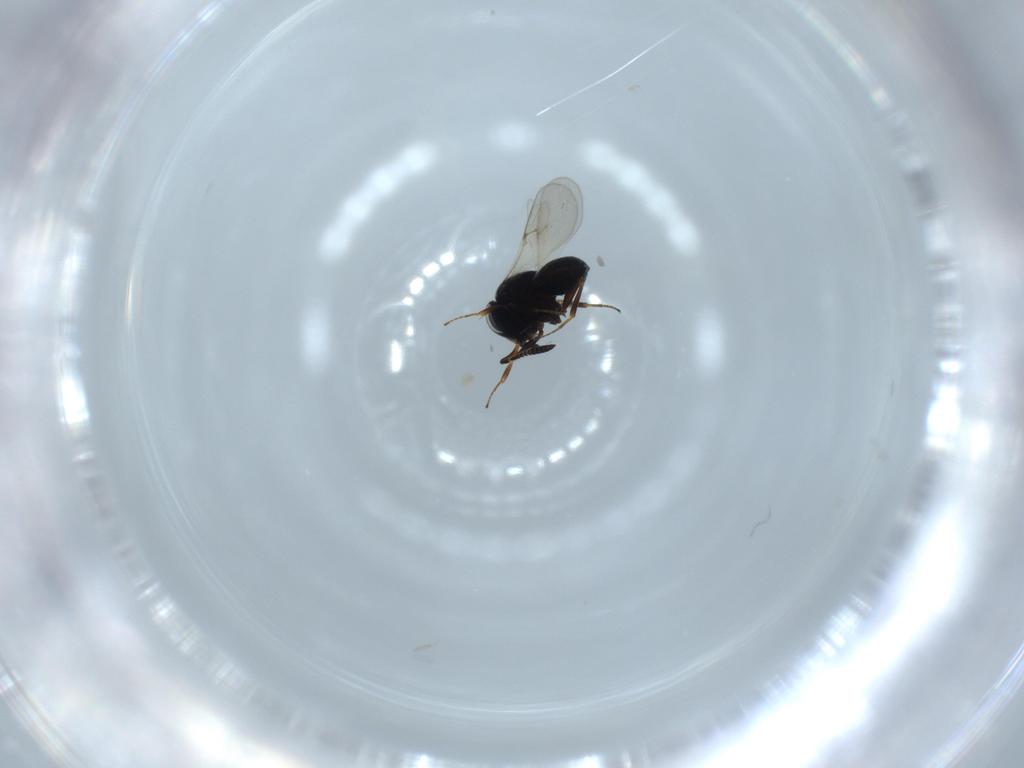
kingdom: Animalia
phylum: Arthropoda
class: Insecta
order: Hymenoptera
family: Scelionidae
